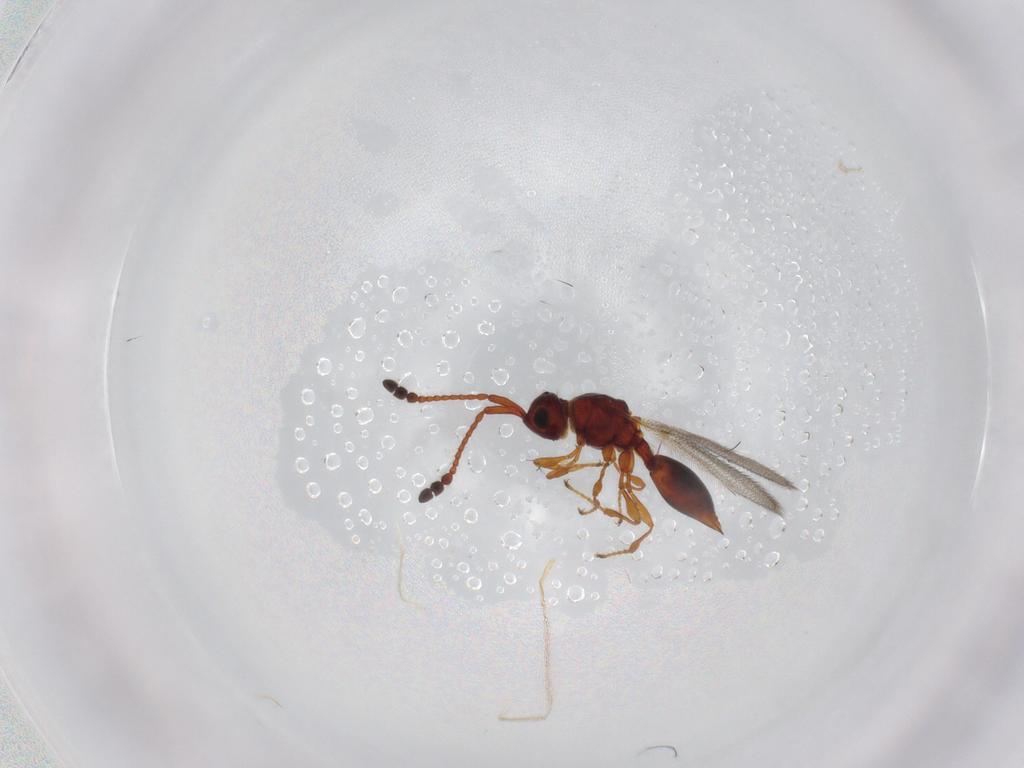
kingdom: Animalia
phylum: Arthropoda
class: Insecta
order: Hymenoptera
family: Diapriidae
